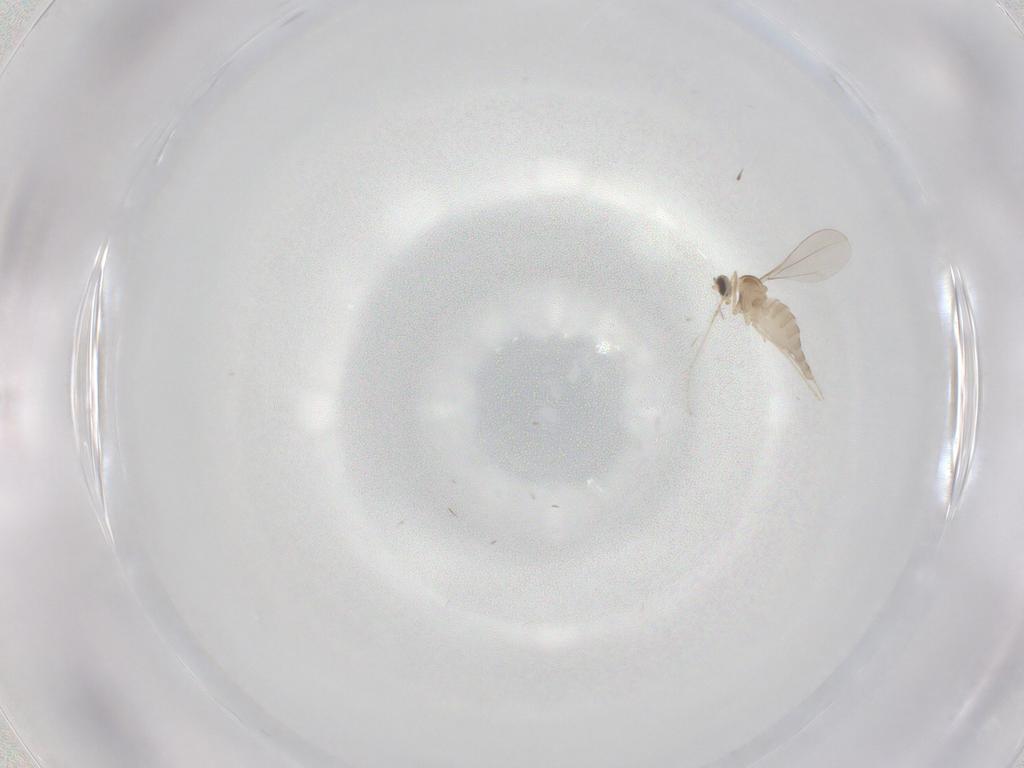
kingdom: Animalia
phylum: Arthropoda
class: Insecta
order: Diptera
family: Cecidomyiidae
